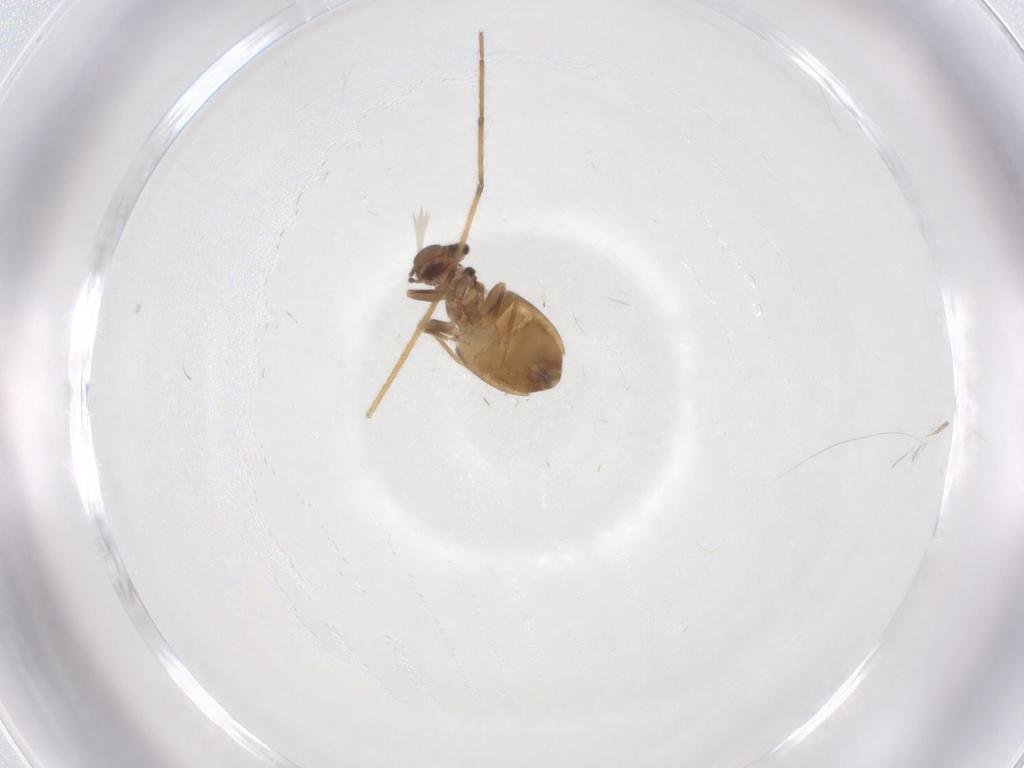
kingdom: Animalia
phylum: Arthropoda
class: Insecta
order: Psocodea
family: Trogiidae
